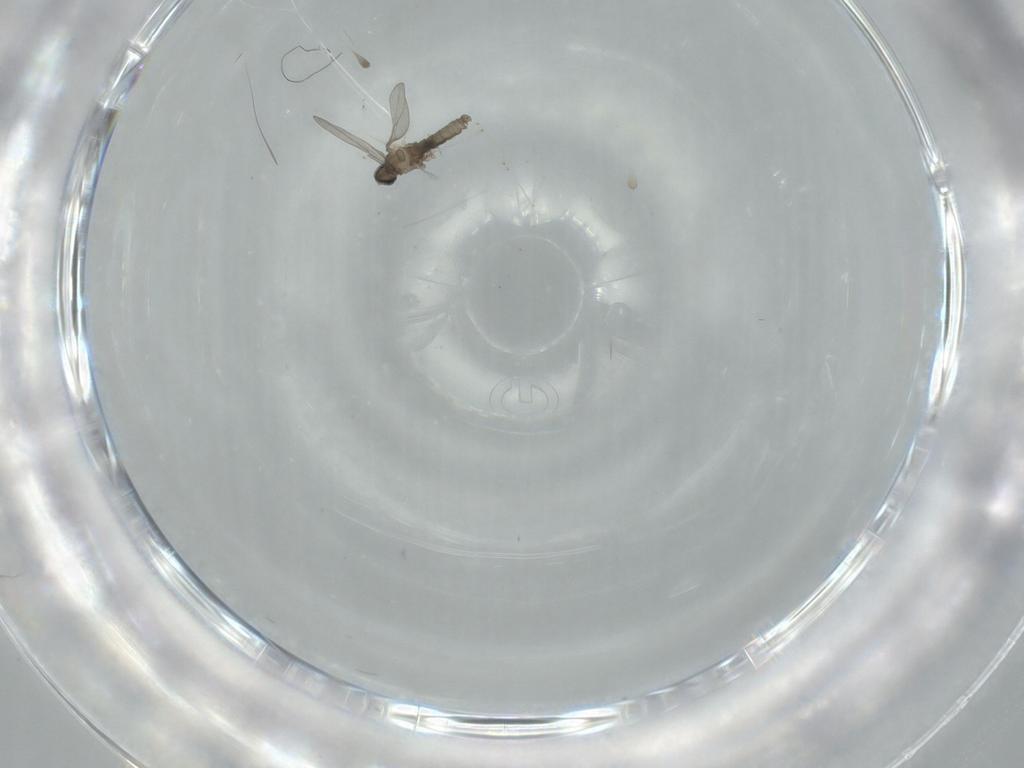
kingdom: Animalia
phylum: Arthropoda
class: Insecta
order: Diptera
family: Cecidomyiidae
